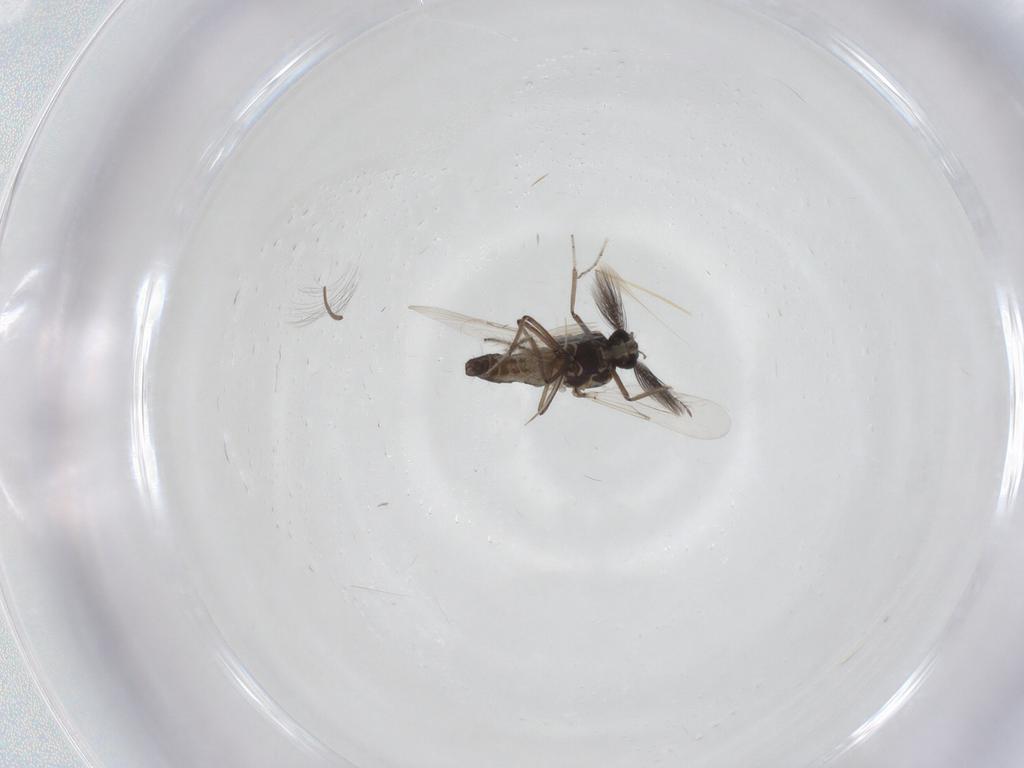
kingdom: Animalia
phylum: Arthropoda
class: Insecta
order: Diptera
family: Ceratopogonidae
